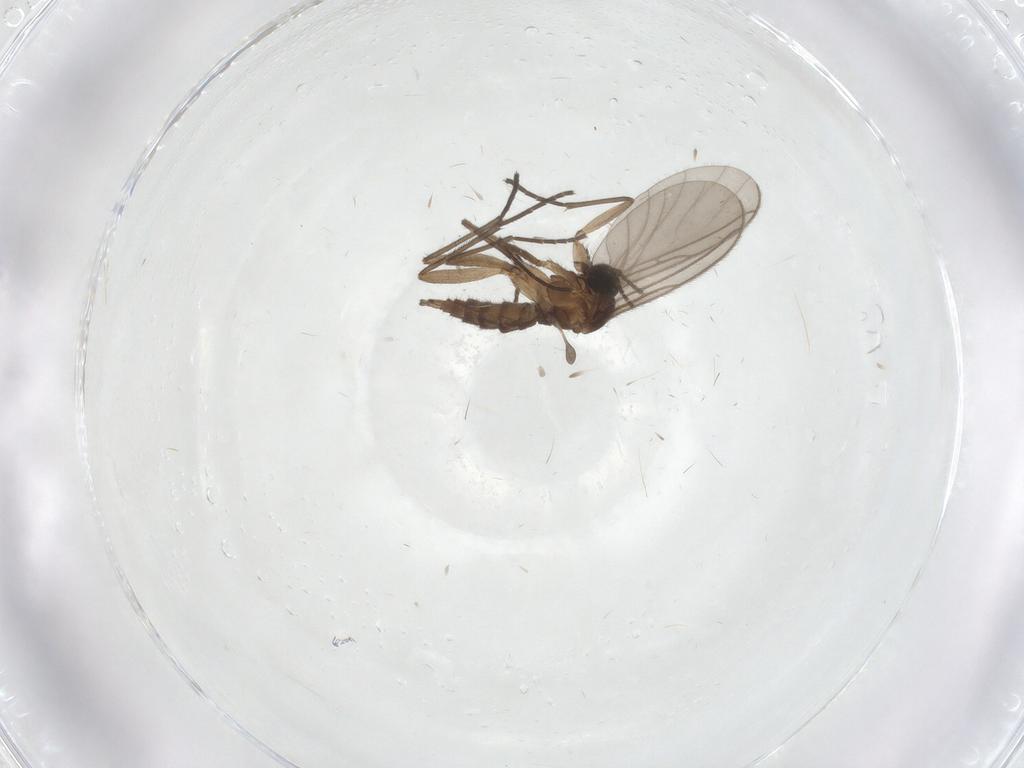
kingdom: Animalia
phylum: Arthropoda
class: Insecta
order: Diptera
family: Sciaridae
